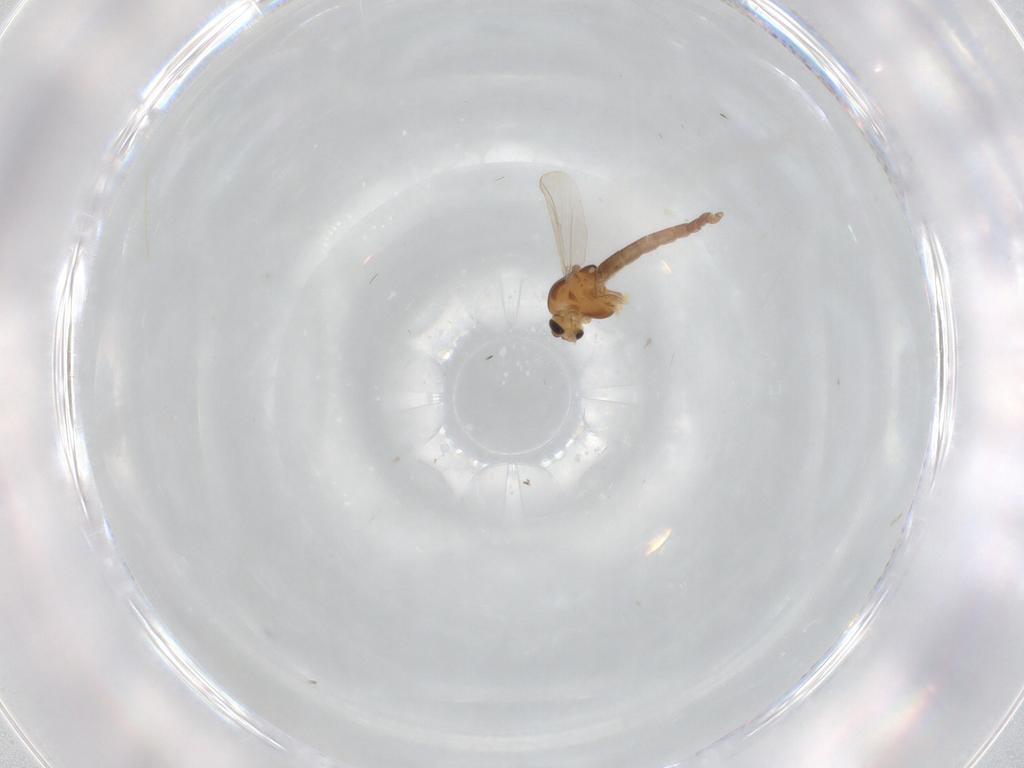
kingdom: Animalia
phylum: Arthropoda
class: Insecta
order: Diptera
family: Chironomidae
